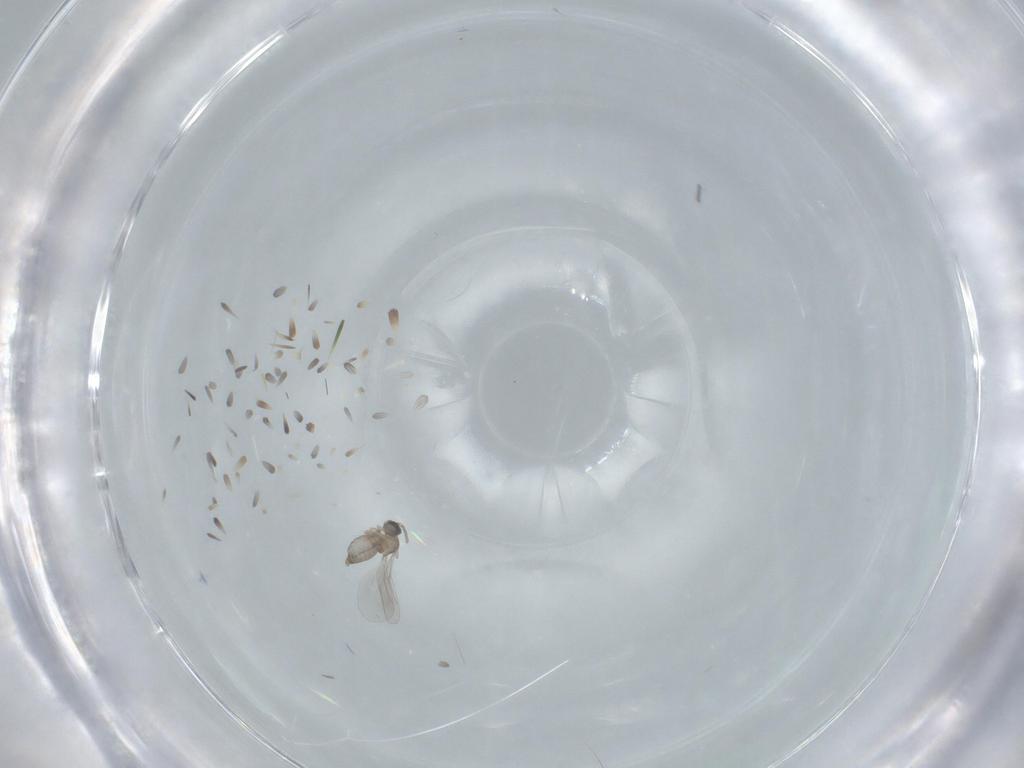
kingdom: Animalia
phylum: Arthropoda
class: Insecta
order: Diptera
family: Cecidomyiidae
